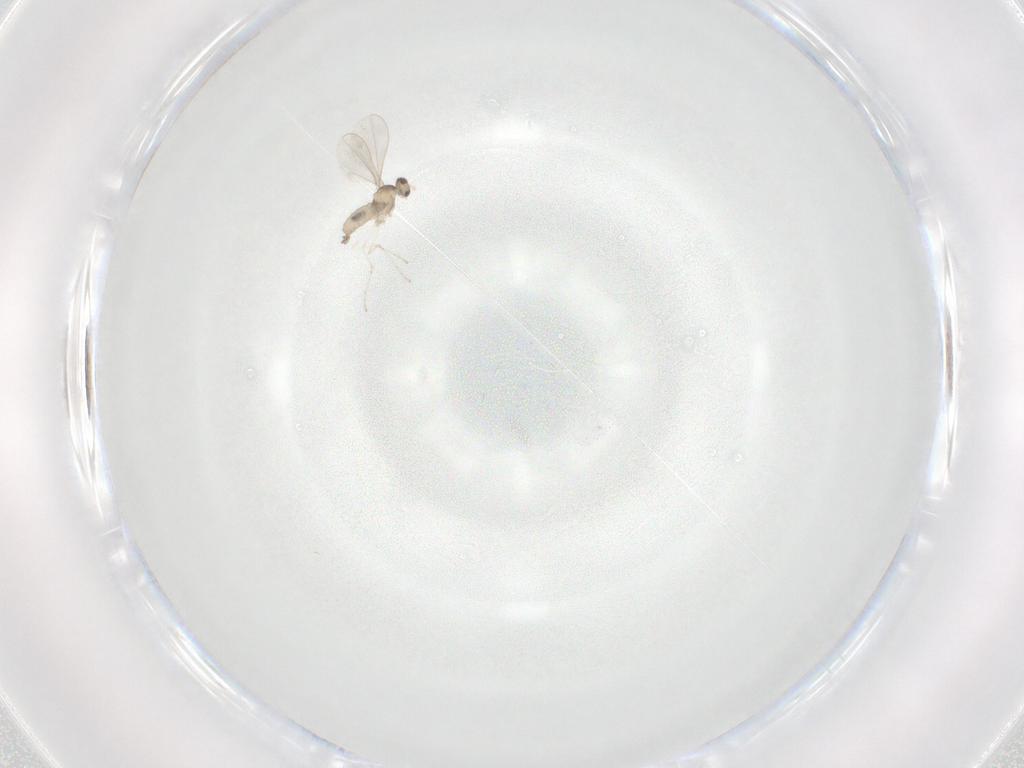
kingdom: Animalia
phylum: Arthropoda
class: Insecta
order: Diptera
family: Cecidomyiidae
